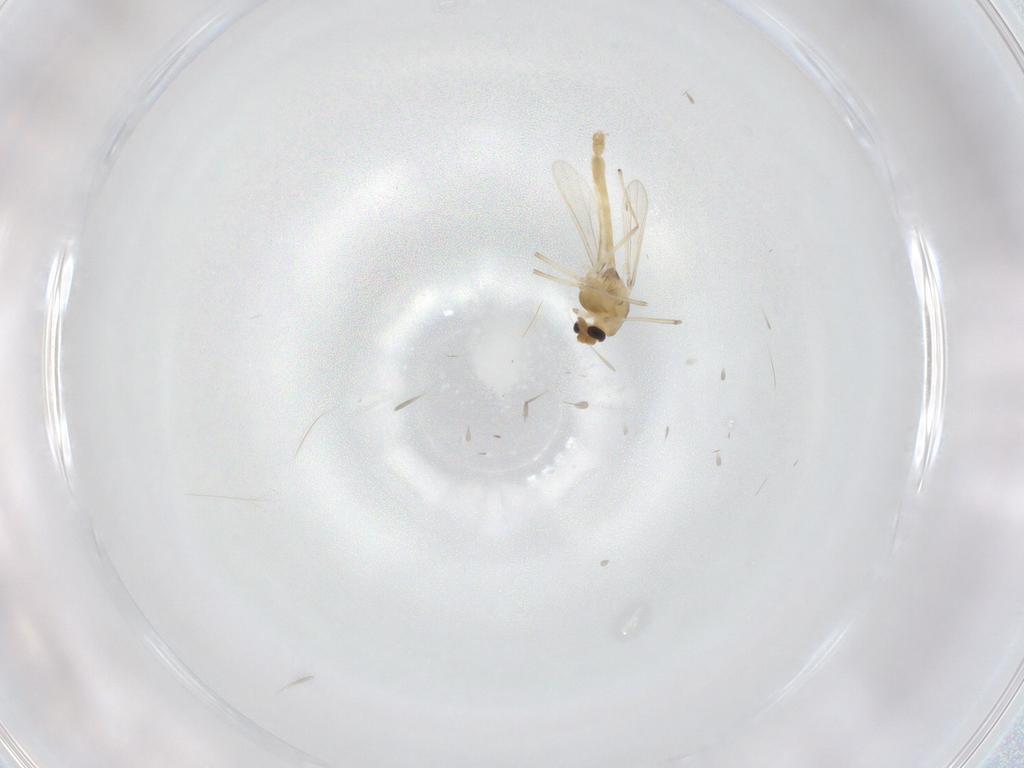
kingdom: Animalia
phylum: Arthropoda
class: Insecta
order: Diptera
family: Chironomidae
